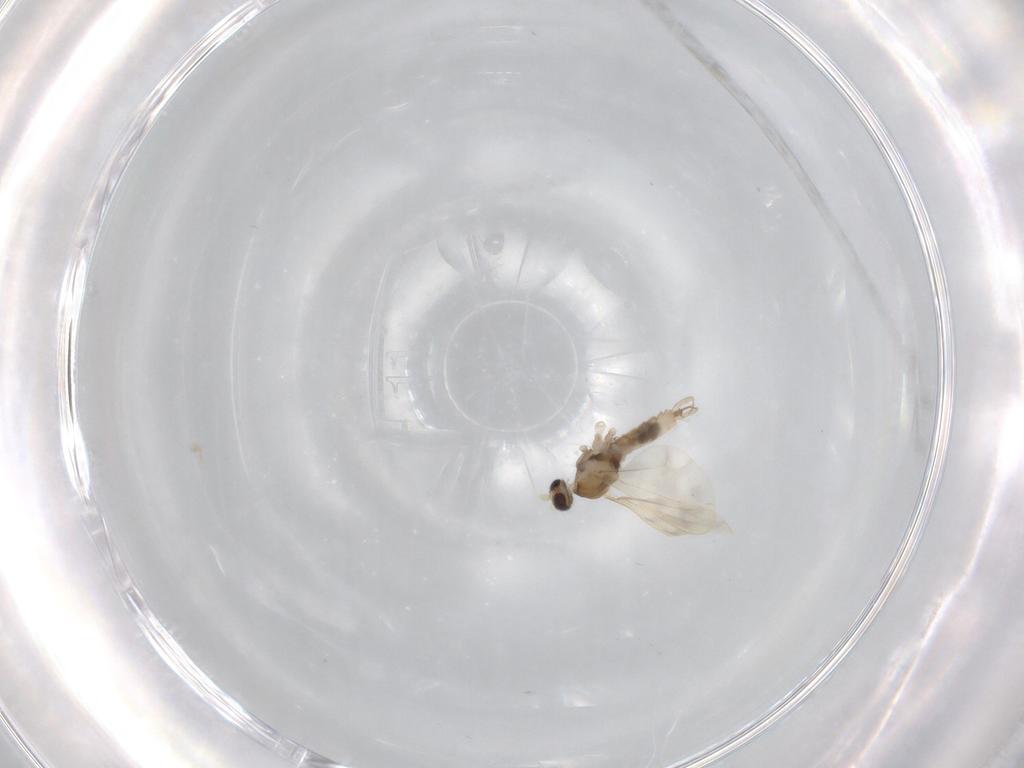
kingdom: Animalia
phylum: Arthropoda
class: Insecta
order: Diptera
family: Cecidomyiidae
